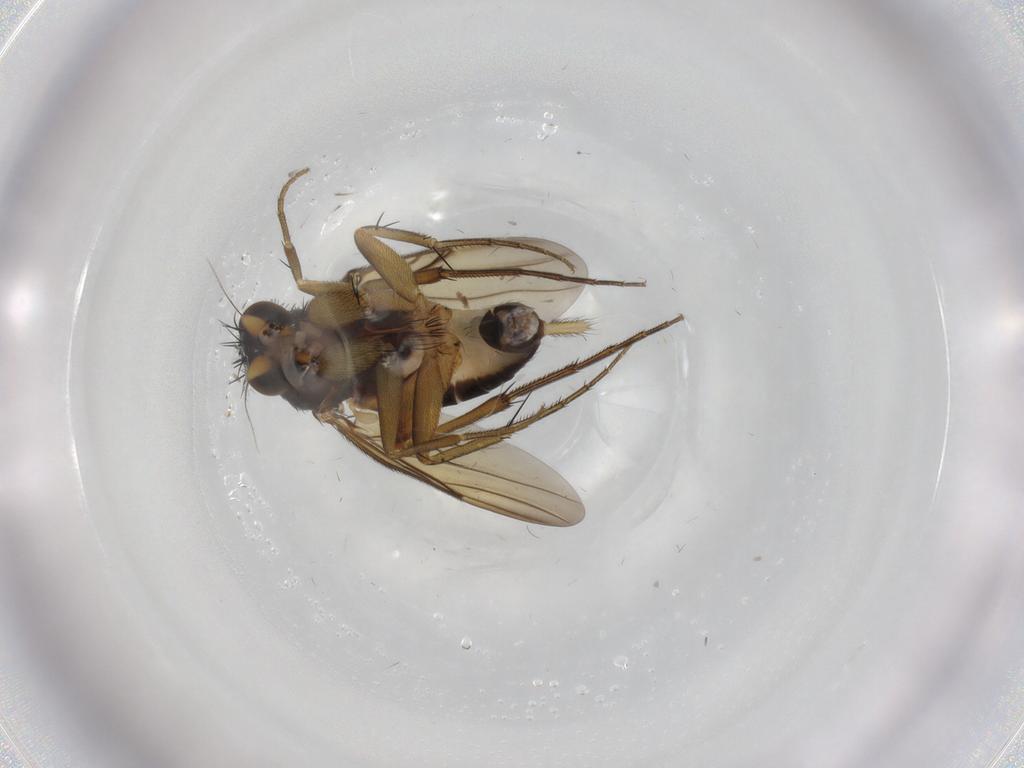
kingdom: Animalia
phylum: Arthropoda
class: Insecta
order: Diptera
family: Phoridae
